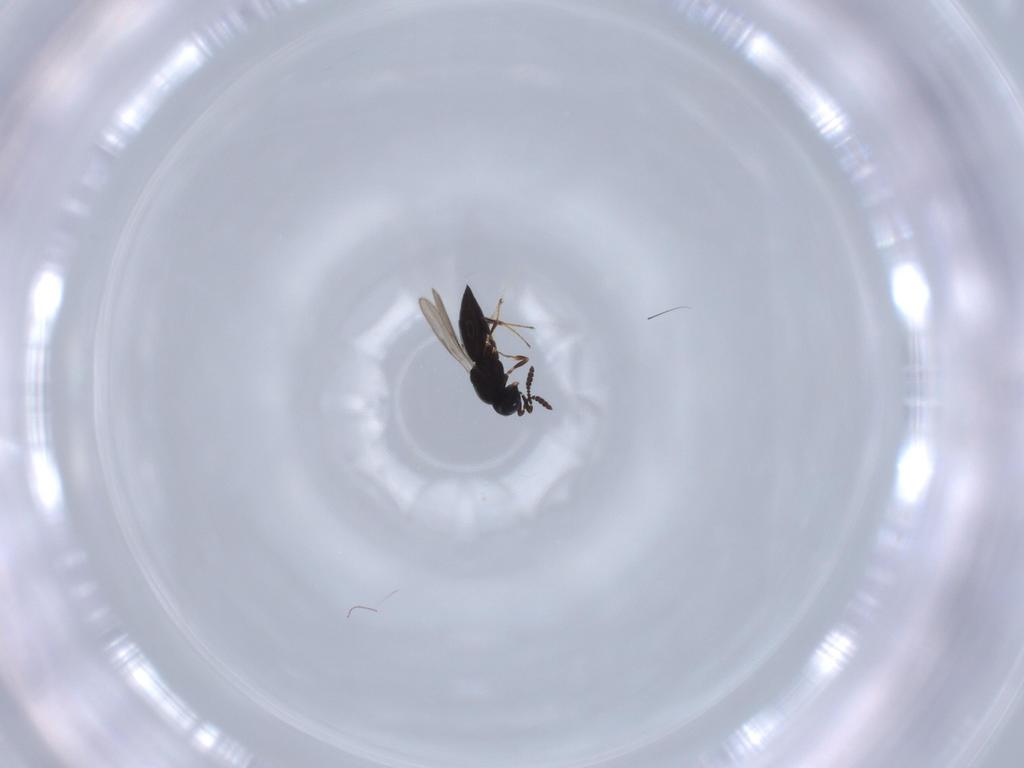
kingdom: Animalia
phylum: Arthropoda
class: Insecta
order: Hymenoptera
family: Scelionidae
